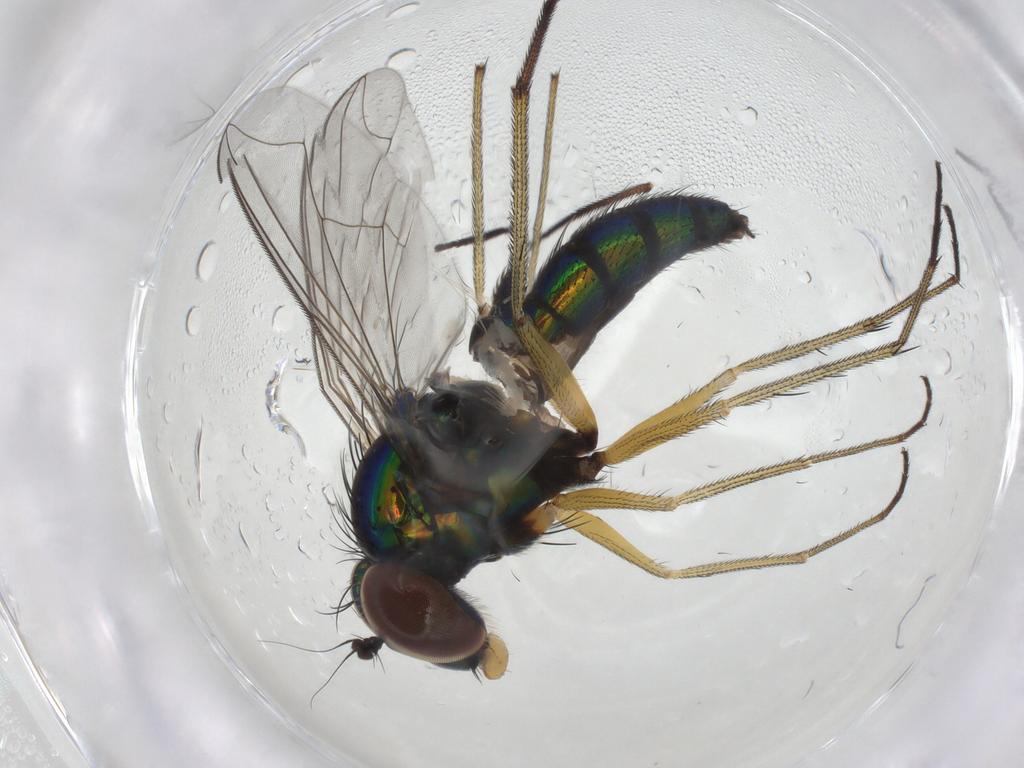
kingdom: Animalia
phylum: Arthropoda
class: Insecta
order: Diptera
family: Dolichopodidae
